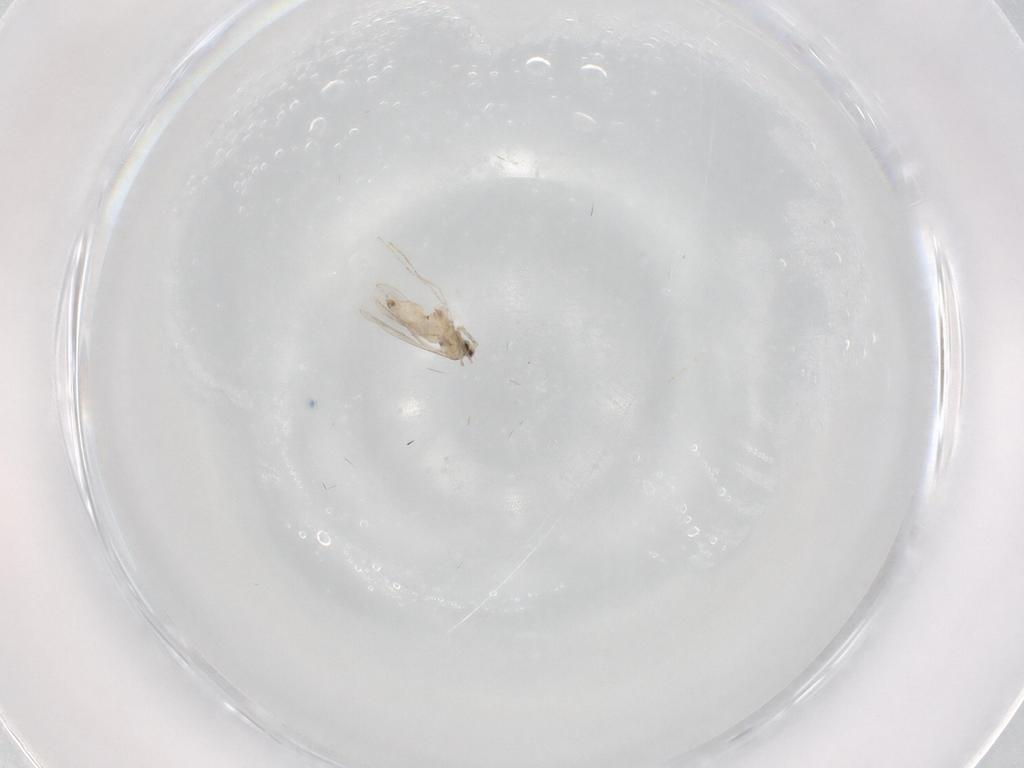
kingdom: Animalia
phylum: Arthropoda
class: Insecta
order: Diptera
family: Cecidomyiidae
